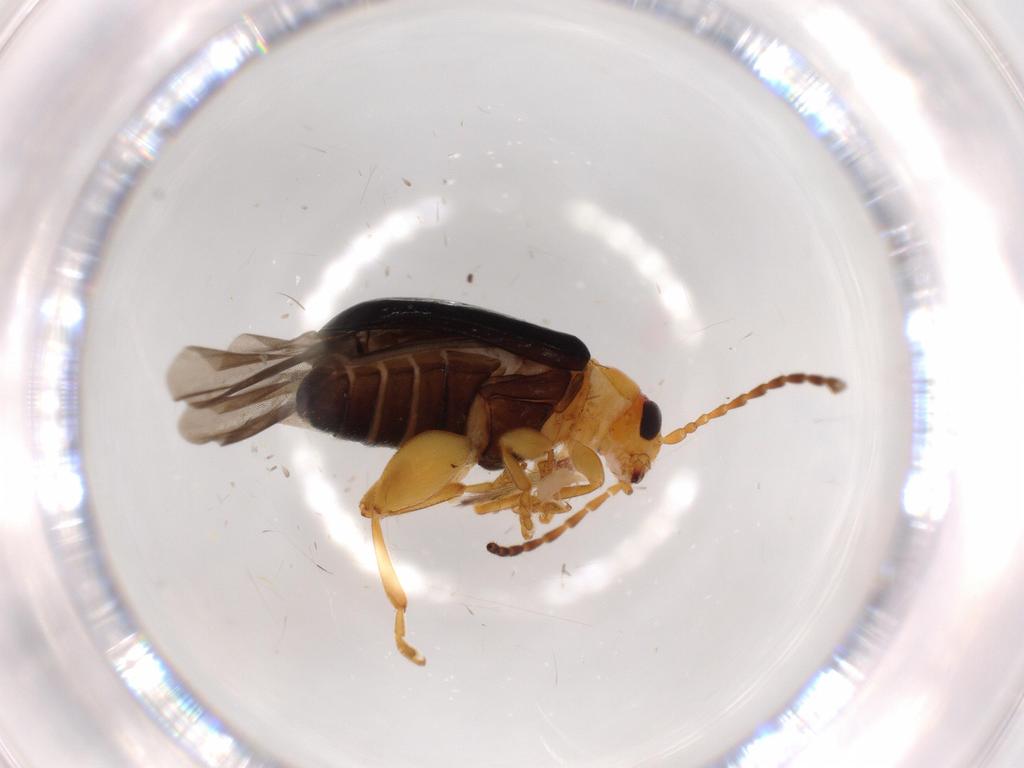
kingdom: Animalia
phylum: Arthropoda
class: Insecta
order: Coleoptera
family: Chrysomelidae
